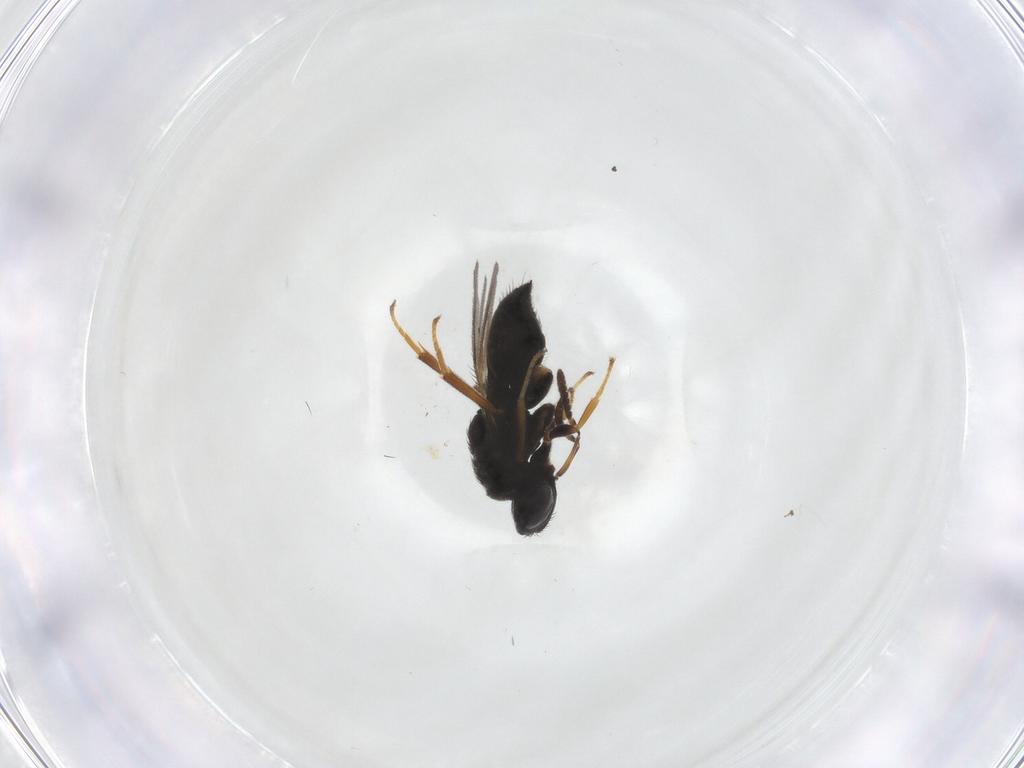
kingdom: Animalia
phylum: Arthropoda
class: Insecta
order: Hymenoptera
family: Pteromalidae
